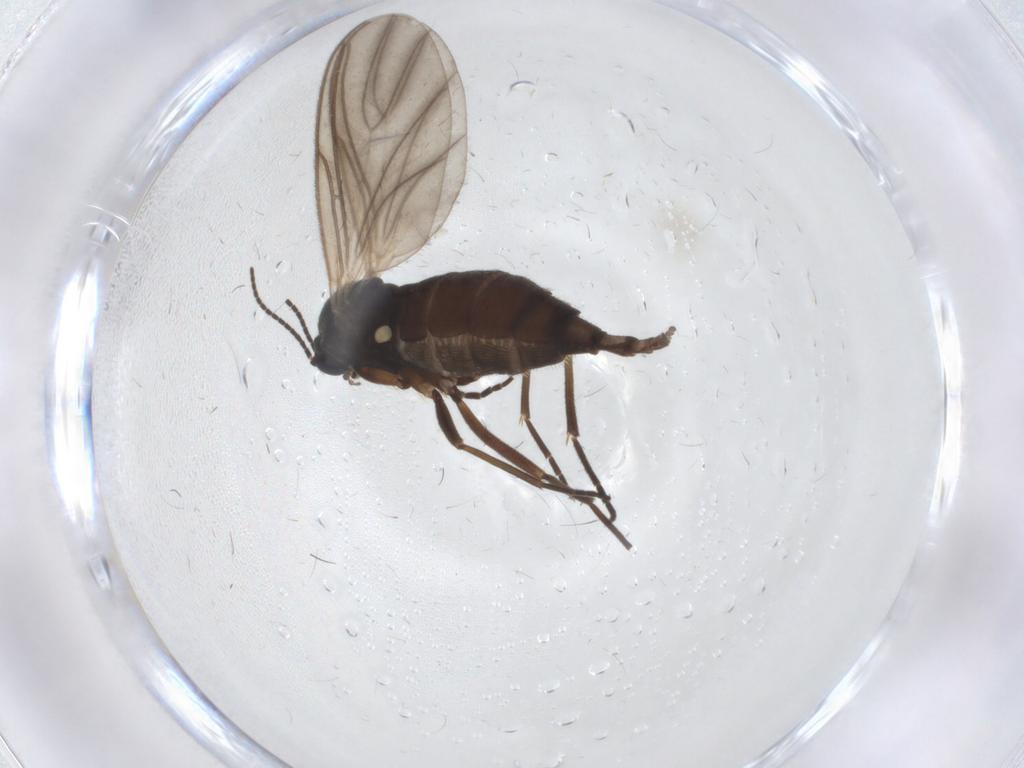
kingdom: Animalia
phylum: Arthropoda
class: Insecta
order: Diptera
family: Sciaridae
